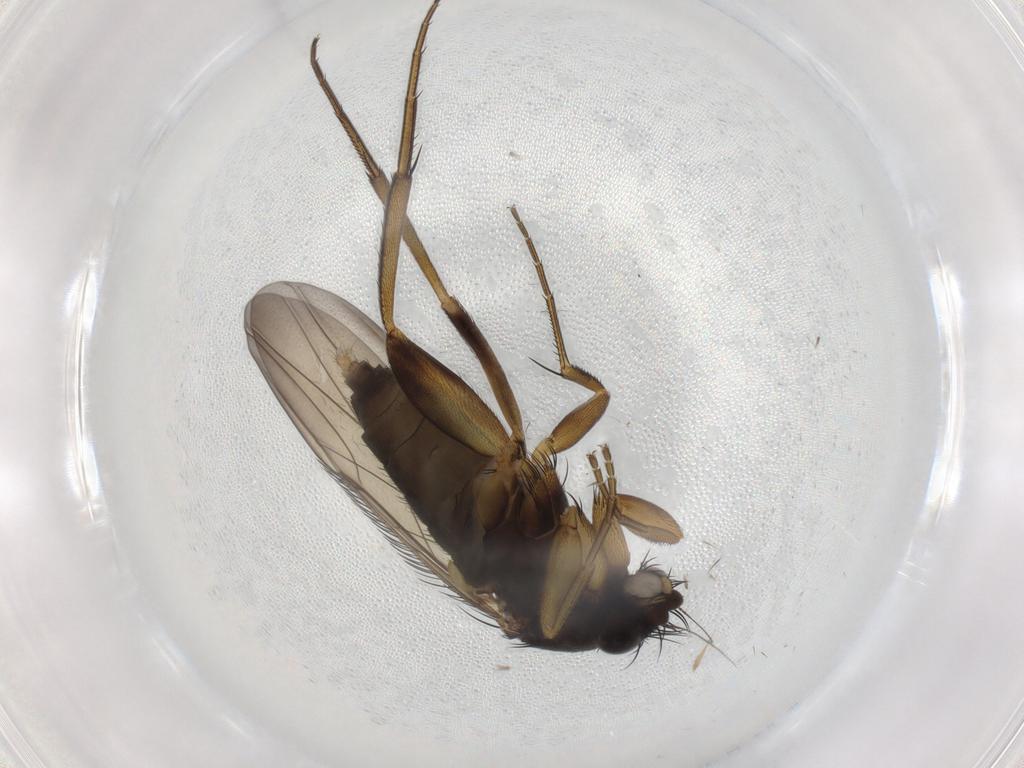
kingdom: Animalia
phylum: Arthropoda
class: Insecta
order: Diptera
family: Phoridae
